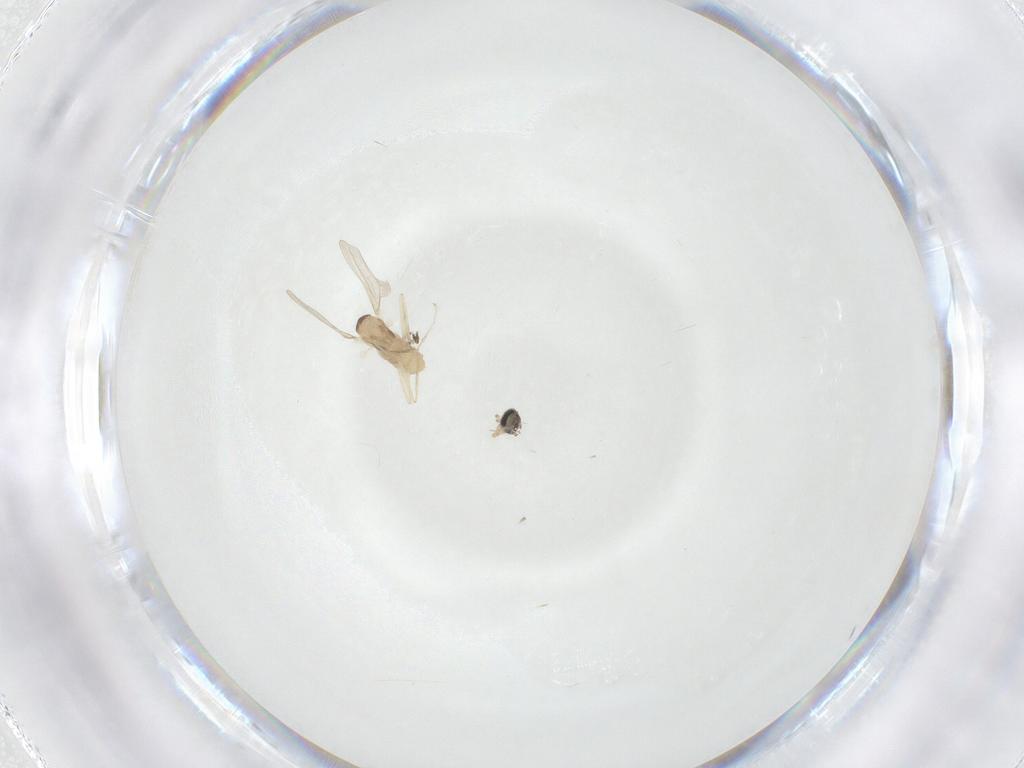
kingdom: Animalia
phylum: Arthropoda
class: Insecta
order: Diptera
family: Cecidomyiidae
